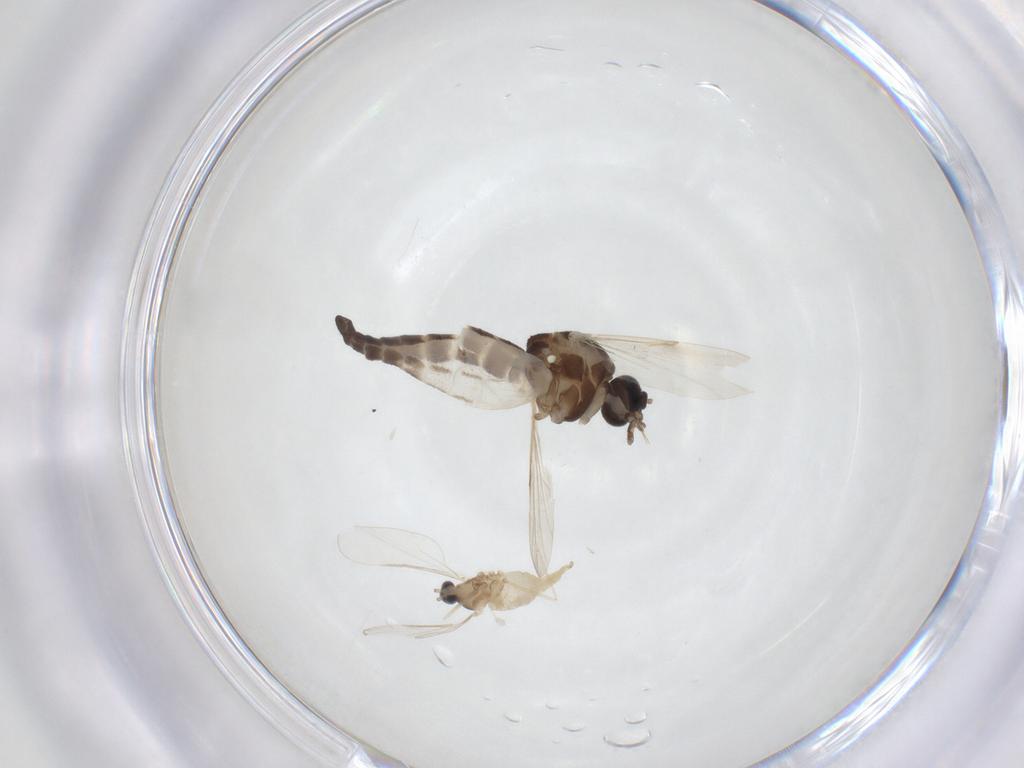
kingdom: Animalia
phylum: Arthropoda
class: Insecta
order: Diptera
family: Ceratopogonidae
